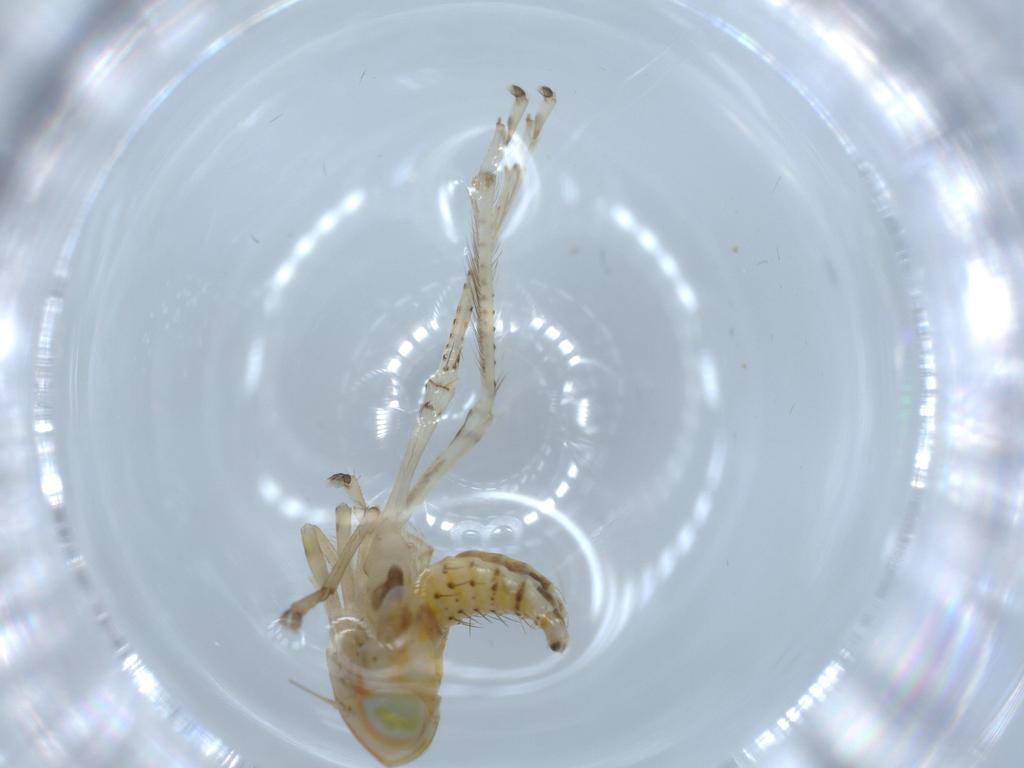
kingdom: Animalia
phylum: Arthropoda
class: Insecta
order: Hemiptera
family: Cicadellidae
